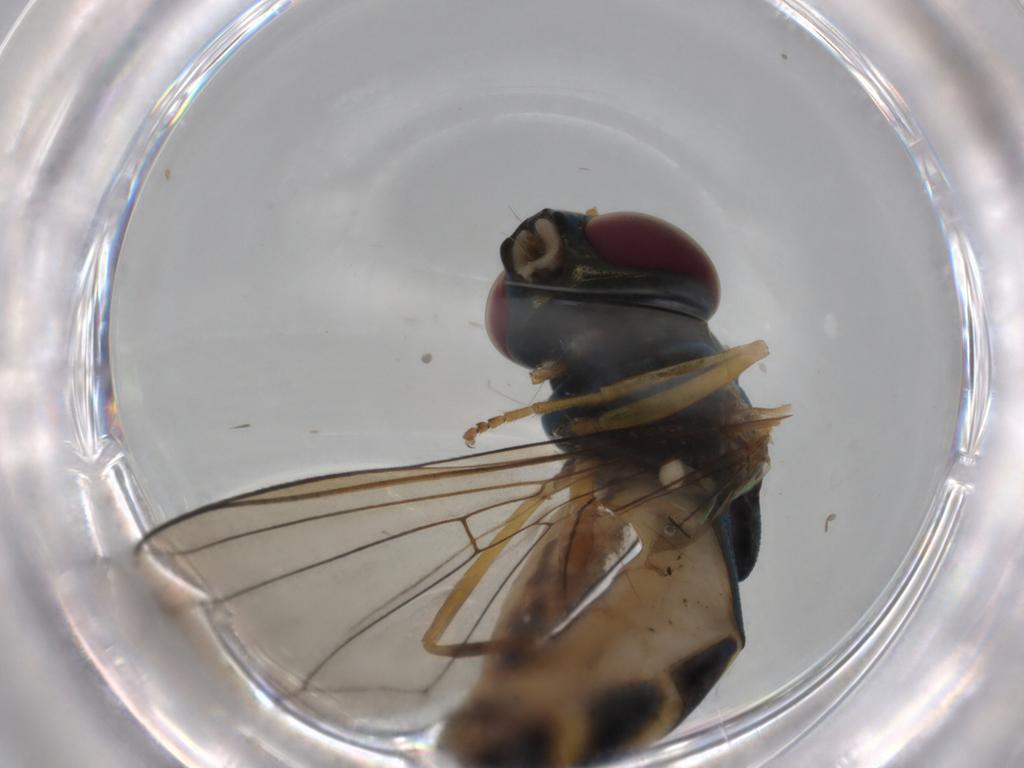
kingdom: Animalia
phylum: Arthropoda
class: Insecta
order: Diptera
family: Syrphidae
